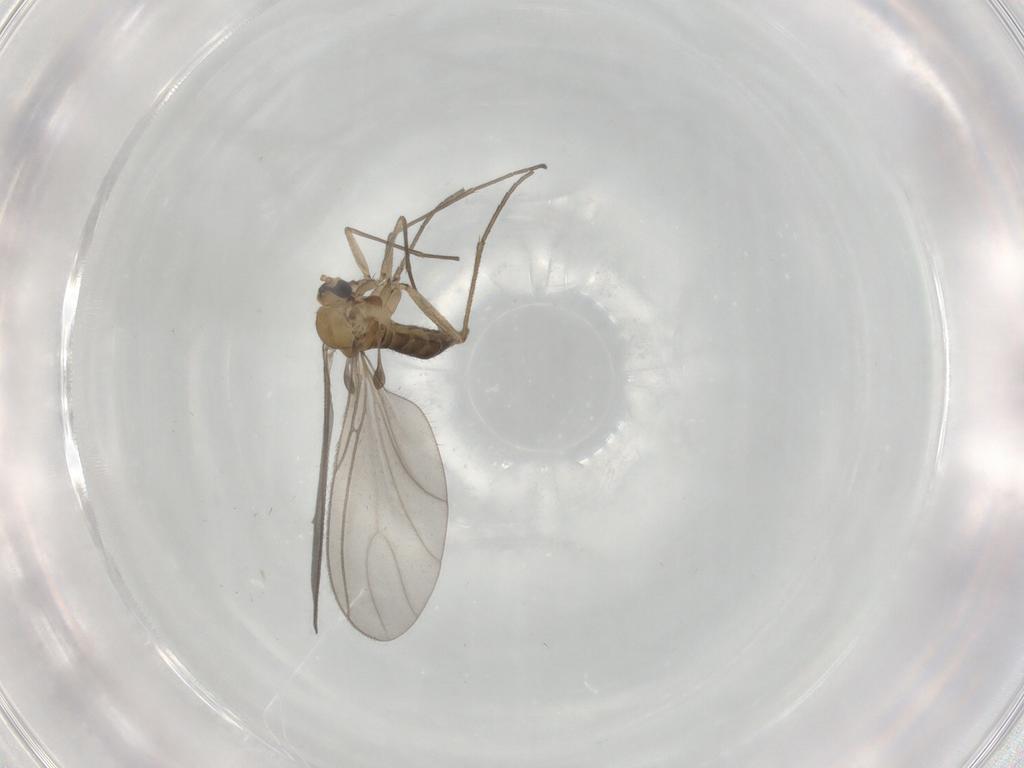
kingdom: Animalia
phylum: Arthropoda
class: Insecta
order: Diptera
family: Sciaridae
